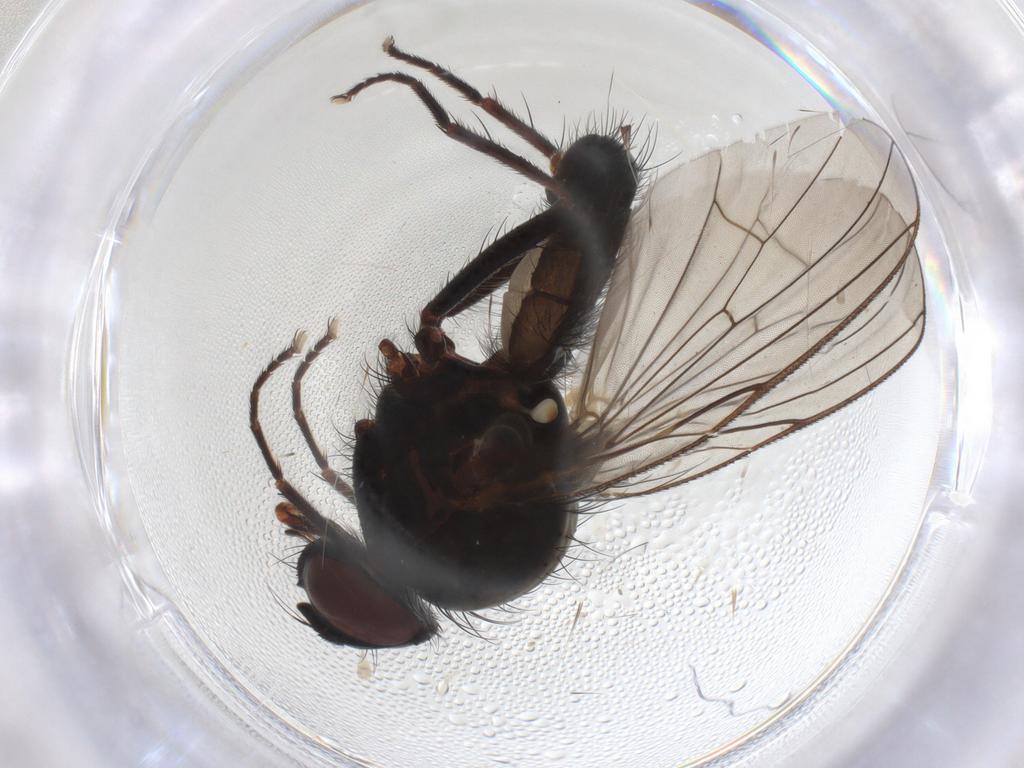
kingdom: Animalia
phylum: Arthropoda
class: Insecta
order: Diptera
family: Anthomyiidae
